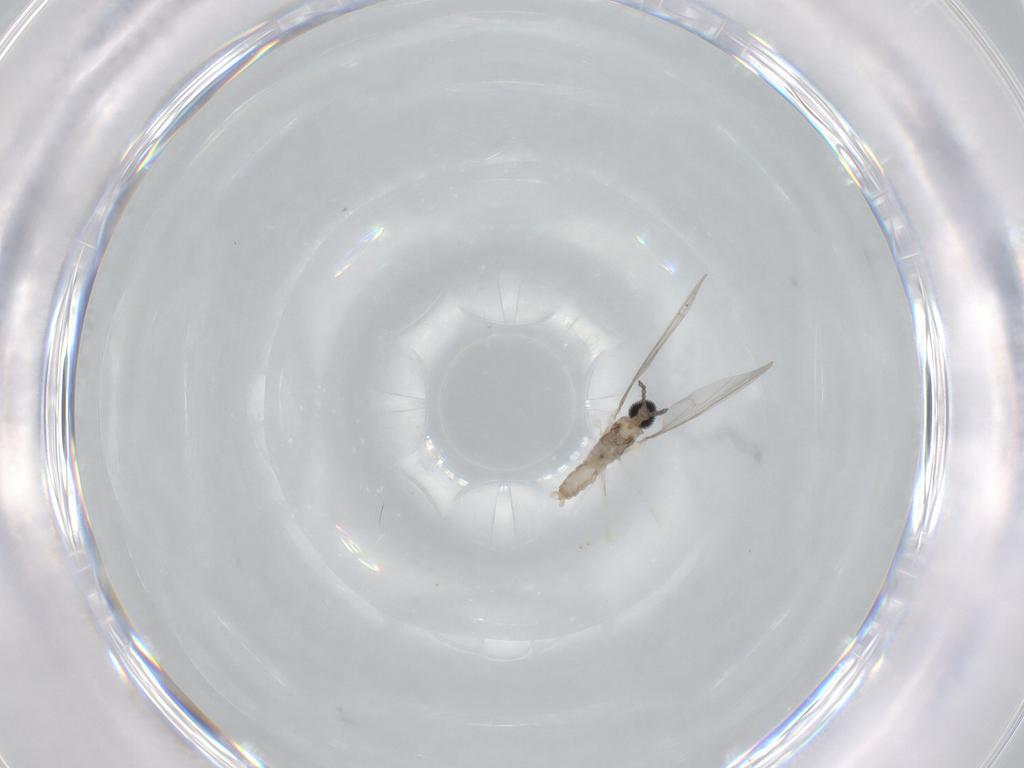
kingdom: Animalia
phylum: Arthropoda
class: Insecta
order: Diptera
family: Cecidomyiidae
